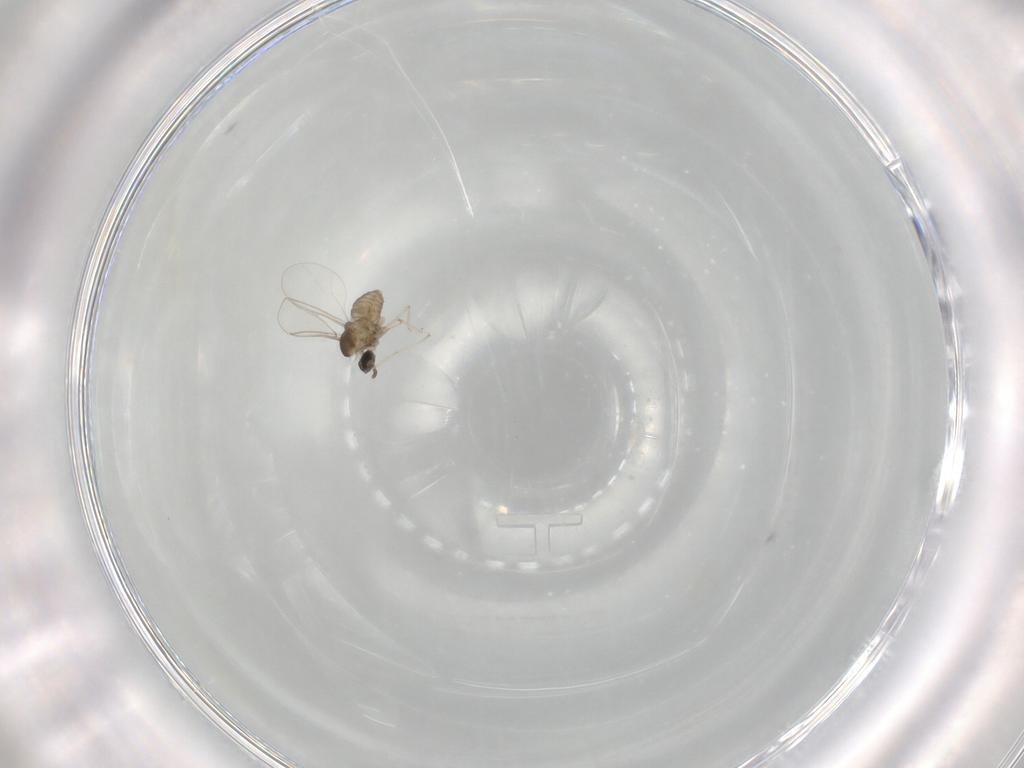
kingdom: Animalia
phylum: Arthropoda
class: Insecta
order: Diptera
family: Cecidomyiidae
